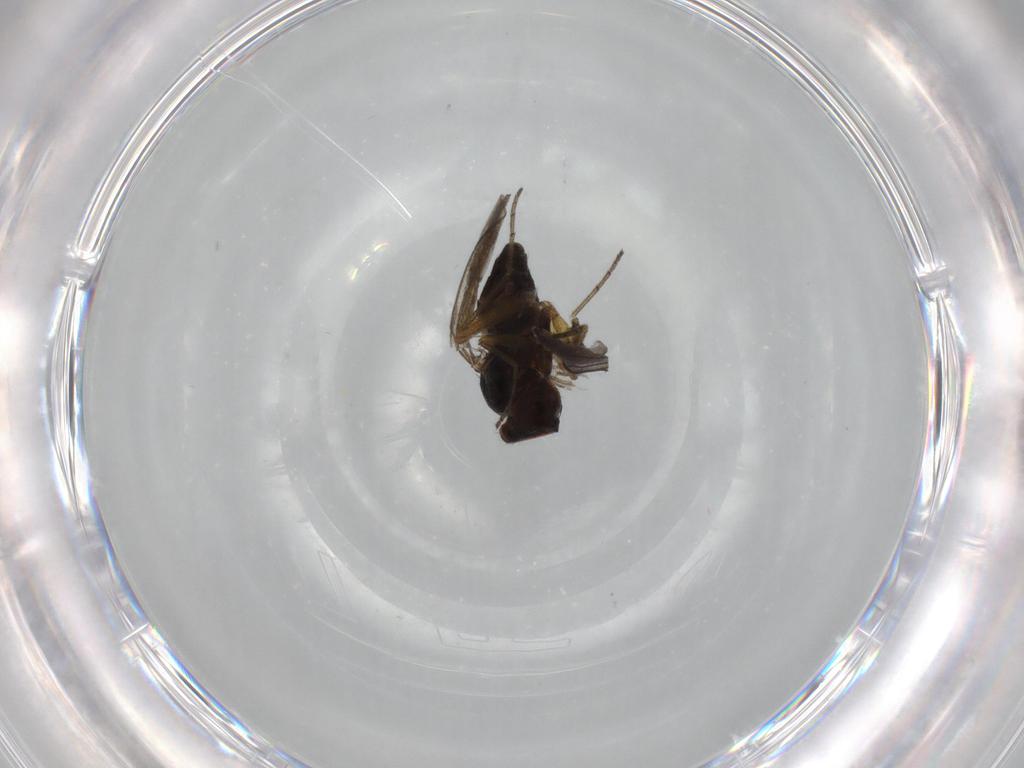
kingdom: Animalia
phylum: Arthropoda
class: Insecta
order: Diptera
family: Dolichopodidae
